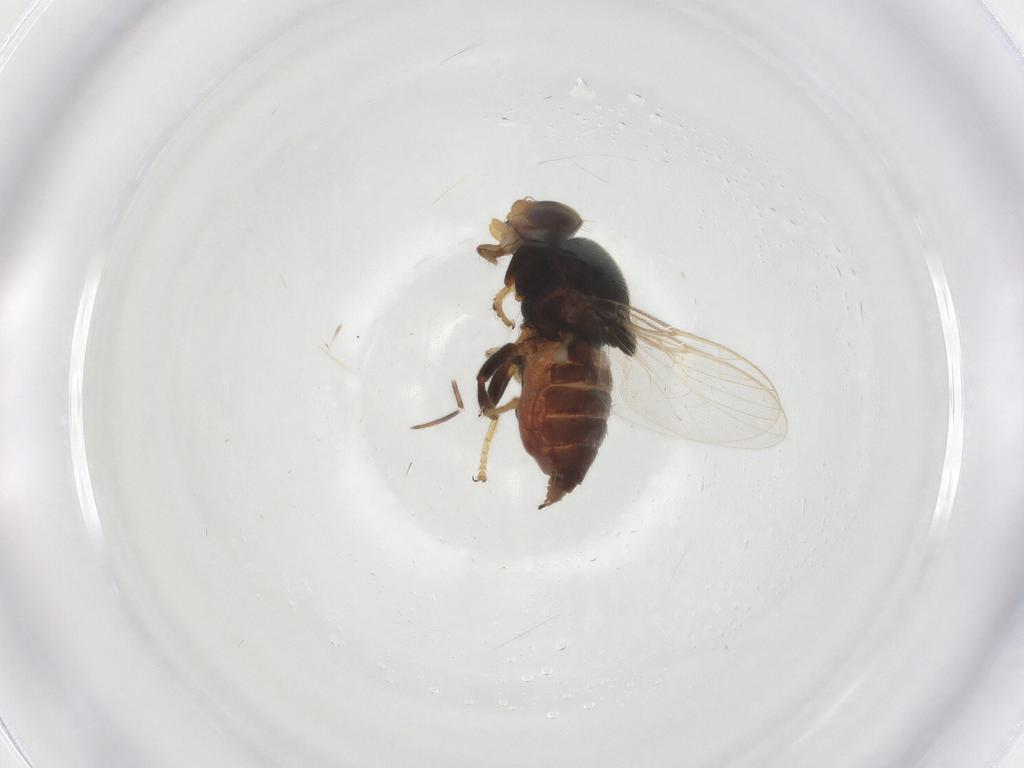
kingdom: Animalia
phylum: Arthropoda
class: Insecta
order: Diptera
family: Chloropidae
